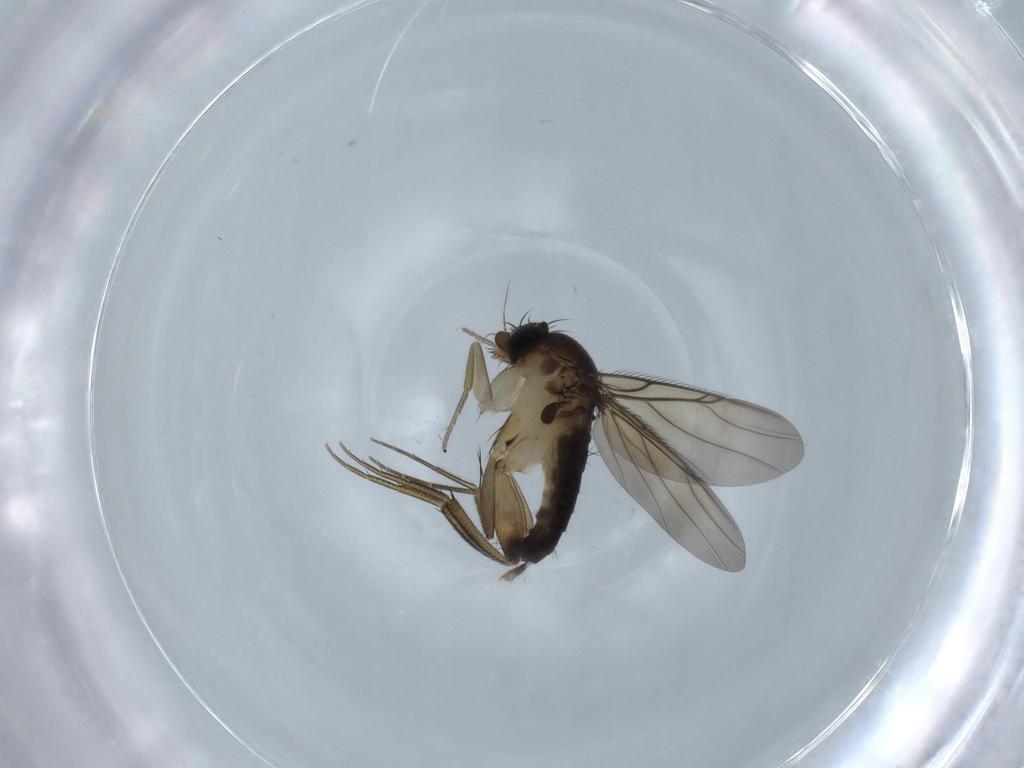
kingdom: Animalia
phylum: Arthropoda
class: Insecta
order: Diptera
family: Phoridae
